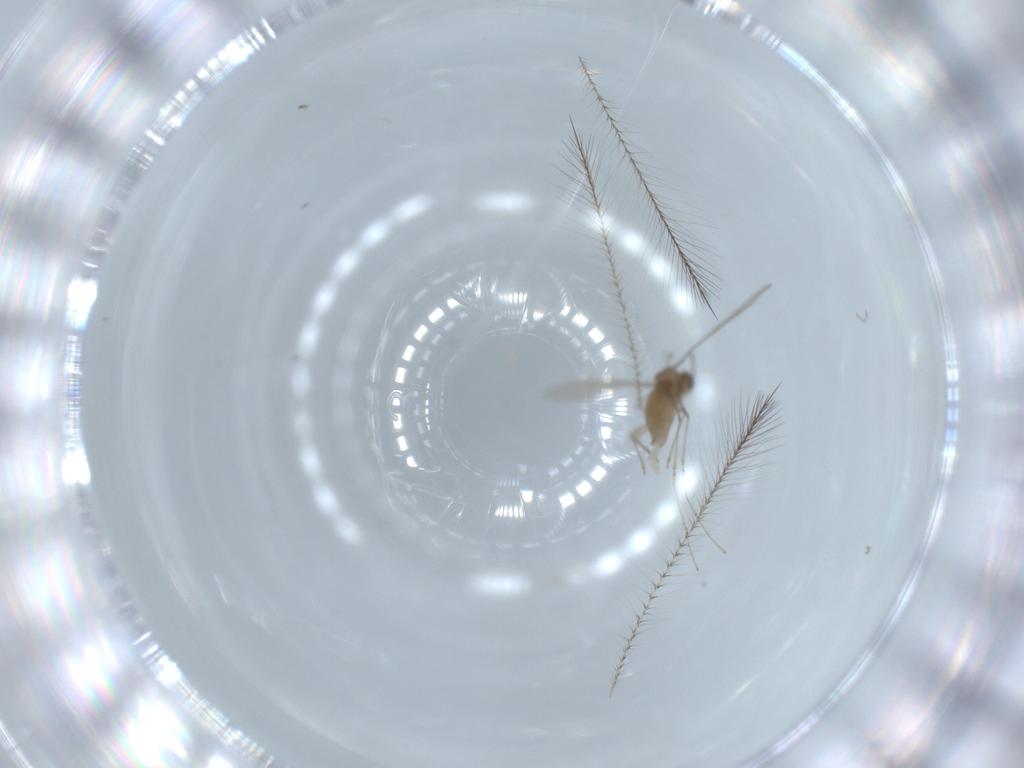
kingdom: Animalia
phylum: Arthropoda
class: Insecta
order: Diptera
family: Cecidomyiidae
